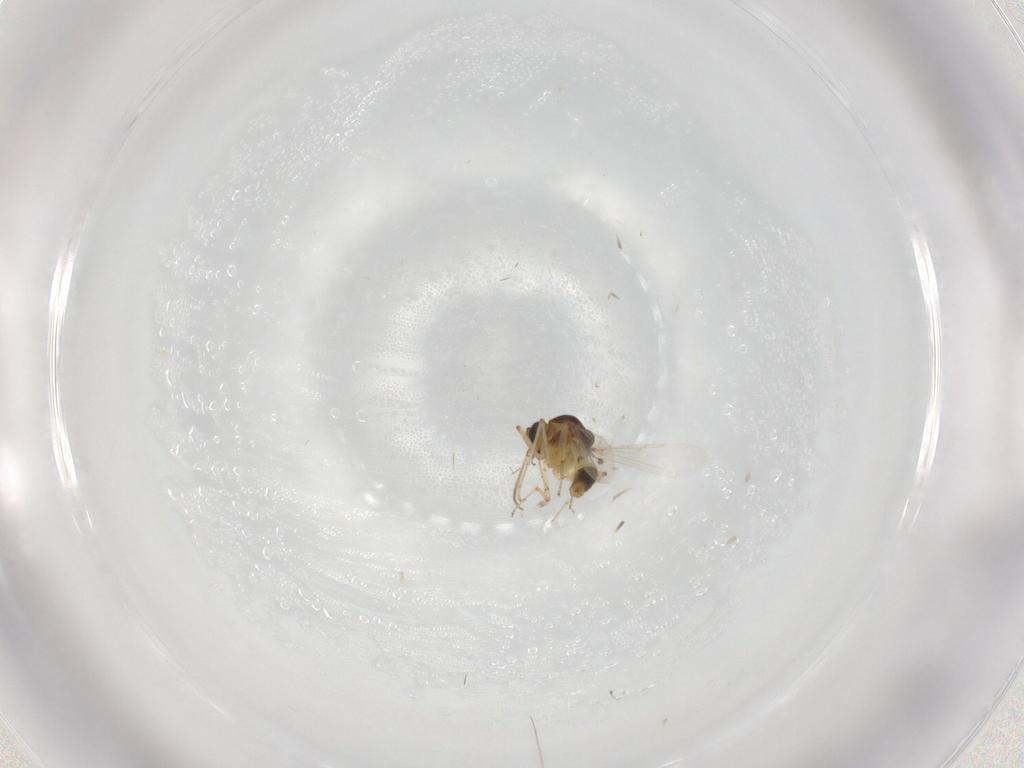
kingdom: Animalia
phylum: Arthropoda
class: Insecta
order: Diptera
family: Ceratopogonidae
